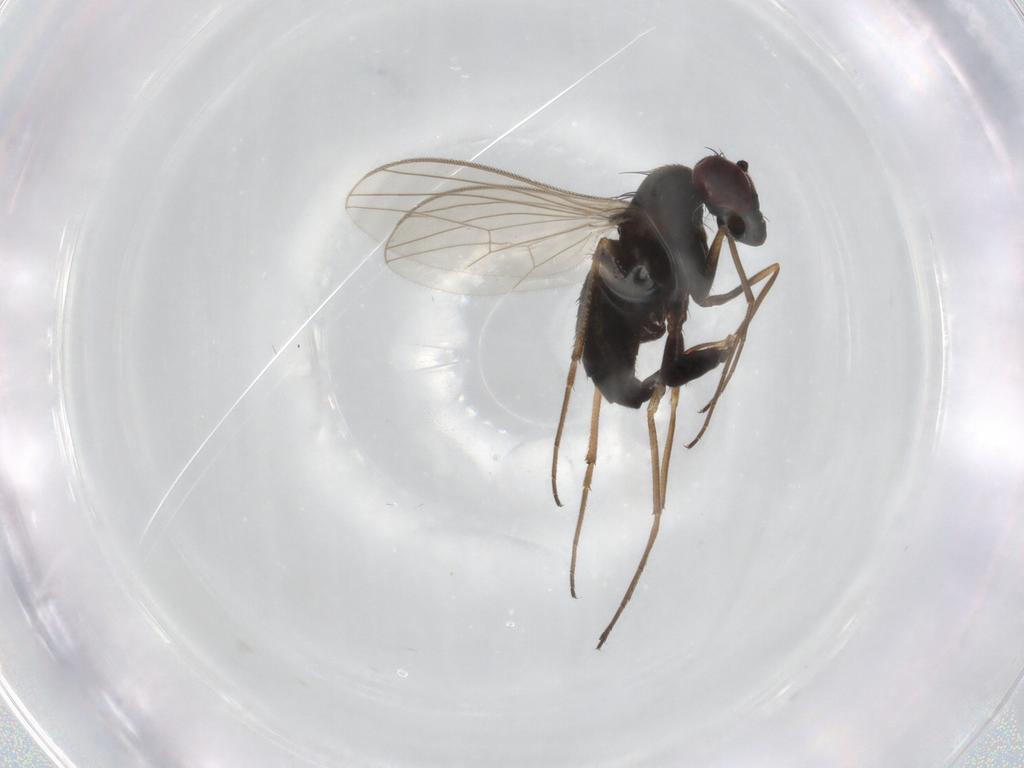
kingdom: Animalia
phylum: Arthropoda
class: Insecta
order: Diptera
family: Dolichopodidae
